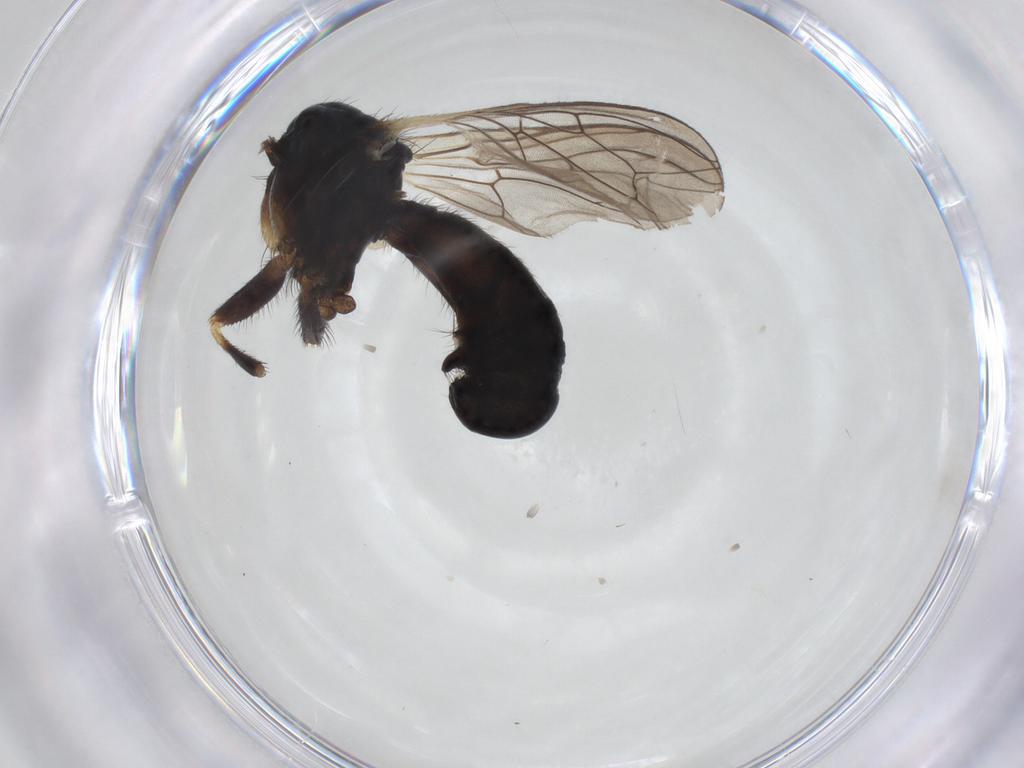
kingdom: Animalia
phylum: Arthropoda
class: Insecta
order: Diptera
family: Conopidae
